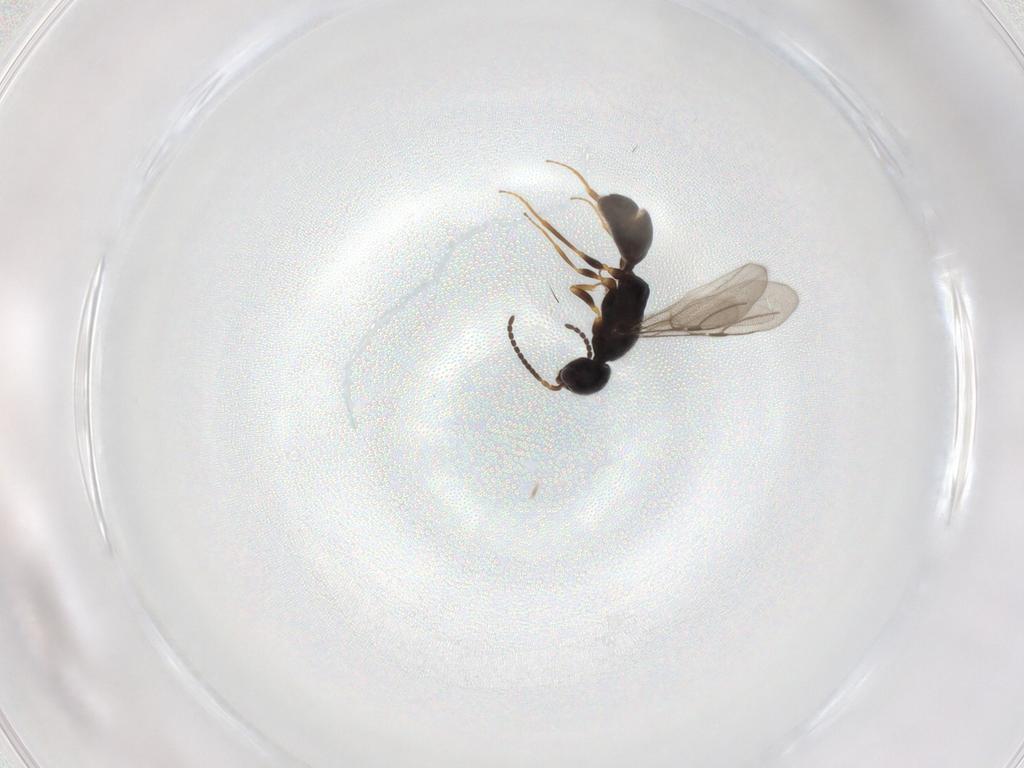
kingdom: Animalia
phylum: Arthropoda
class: Insecta
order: Hymenoptera
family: Bethylidae
